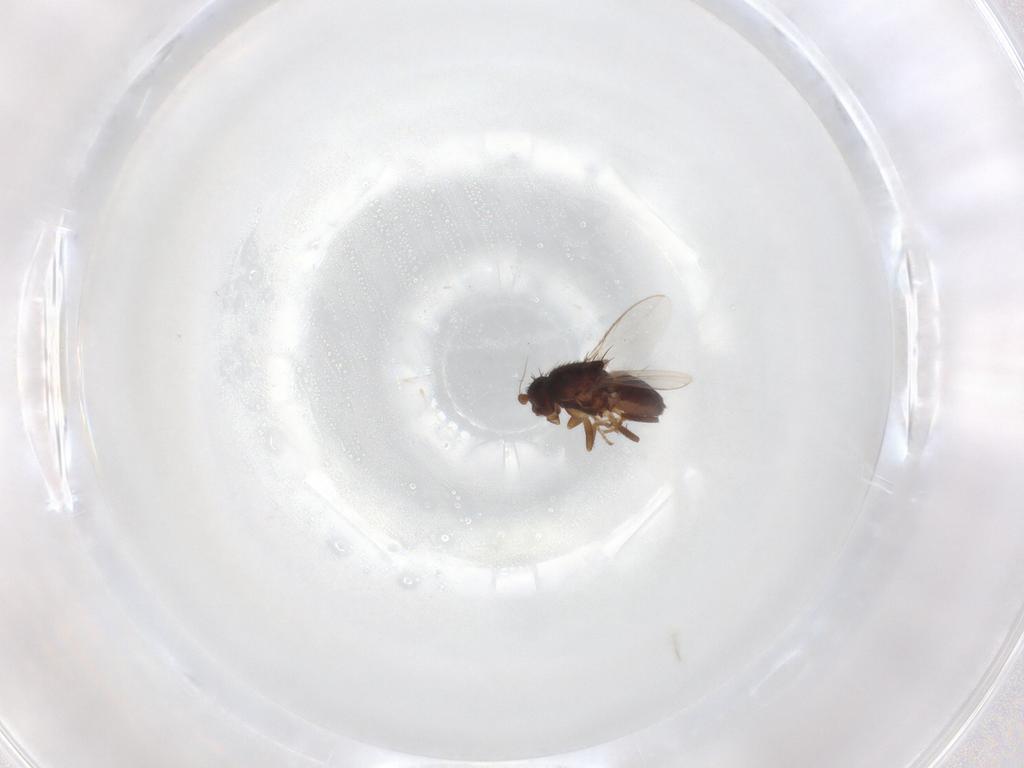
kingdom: Animalia
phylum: Arthropoda
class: Insecta
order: Diptera
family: Sphaeroceridae
